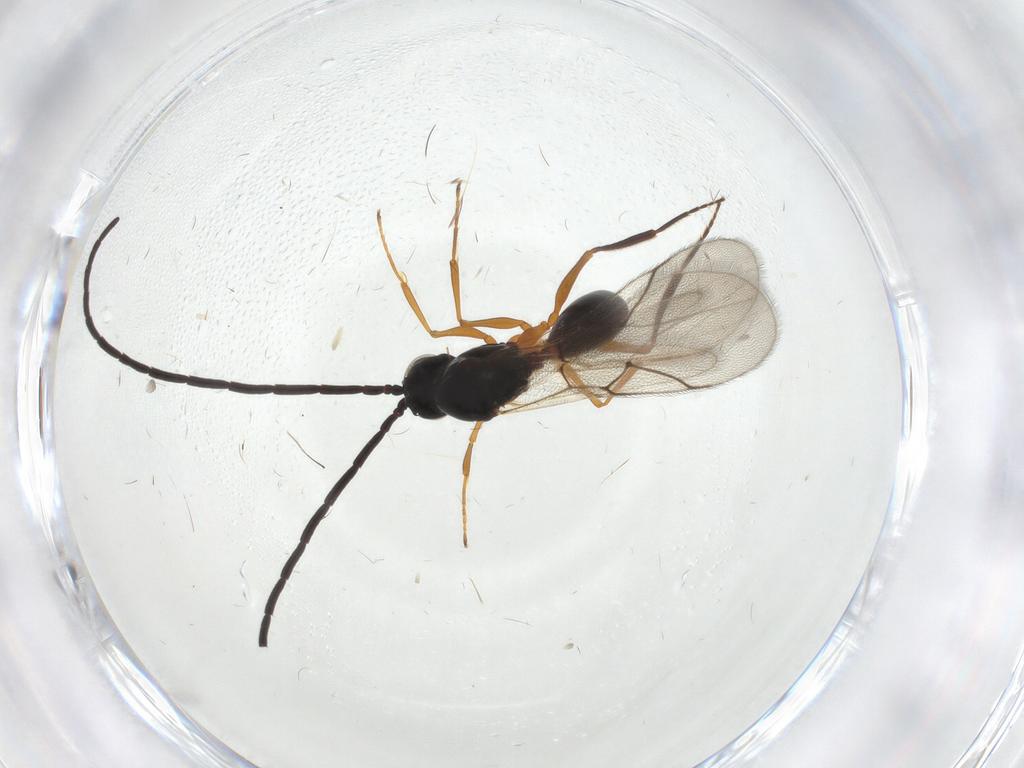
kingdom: Animalia
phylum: Arthropoda
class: Insecta
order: Hymenoptera
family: Figitidae
